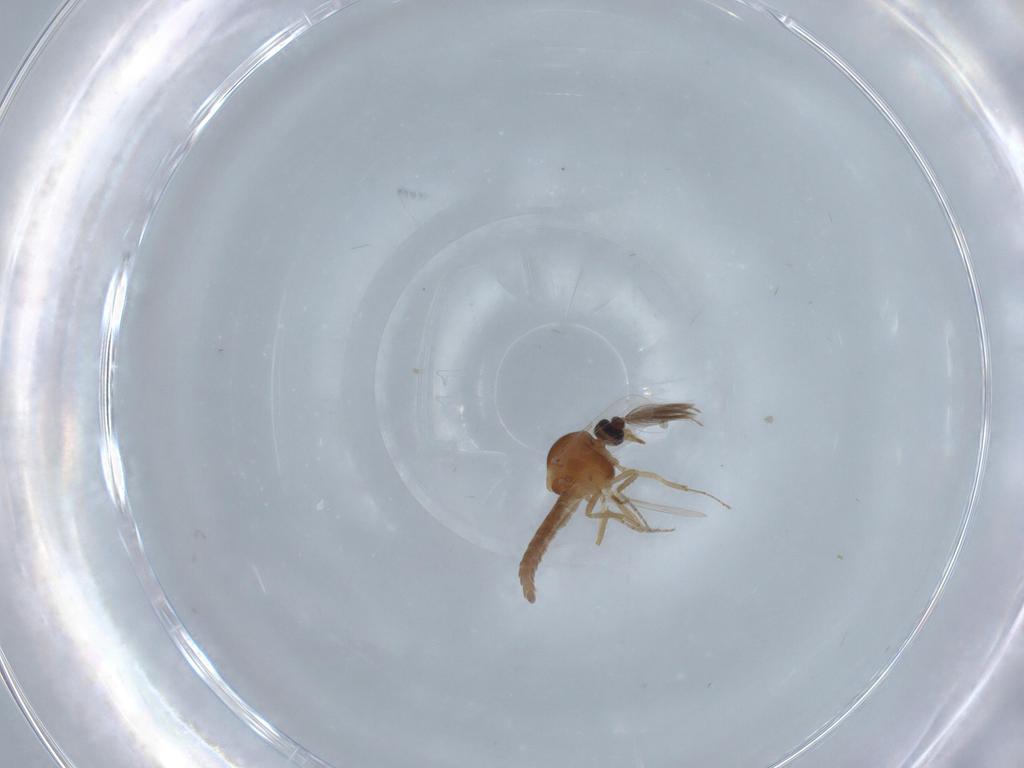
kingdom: Animalia
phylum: Arthropoda
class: Insecta
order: Diptera
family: Ceratopogonidae
